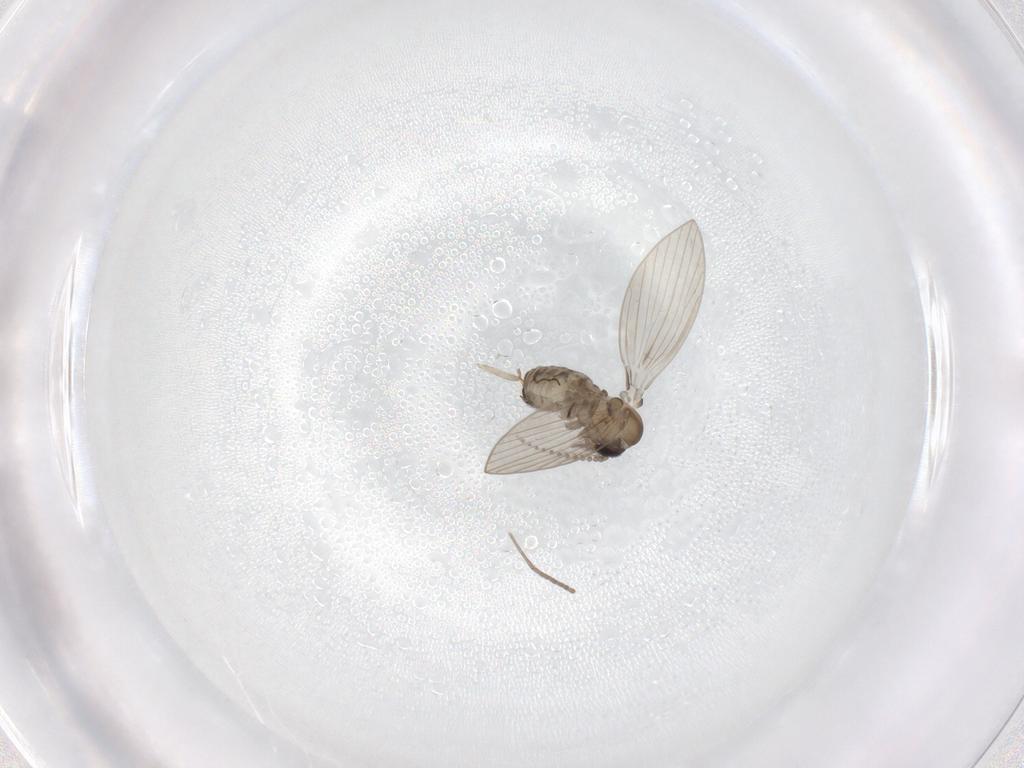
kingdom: Animalia
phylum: Arthropoda
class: Insecta
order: Diptera
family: Psychodidae
